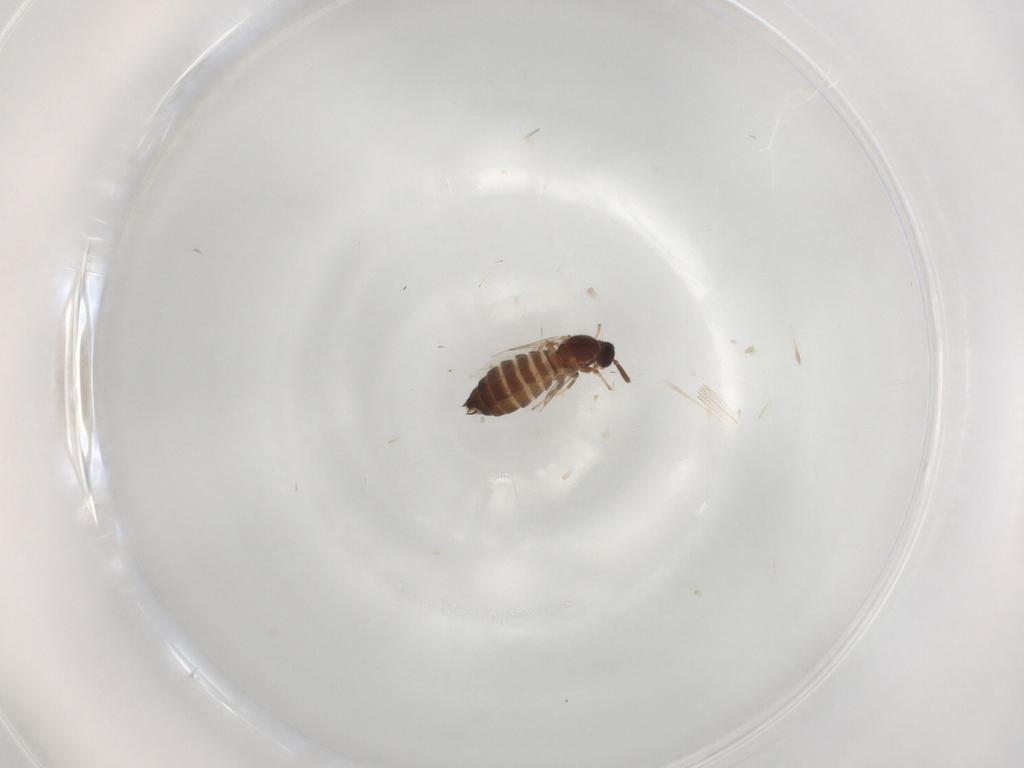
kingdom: Animalia
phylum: Arthropoda
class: Insecta
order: Diptera
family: Scatopsidae
